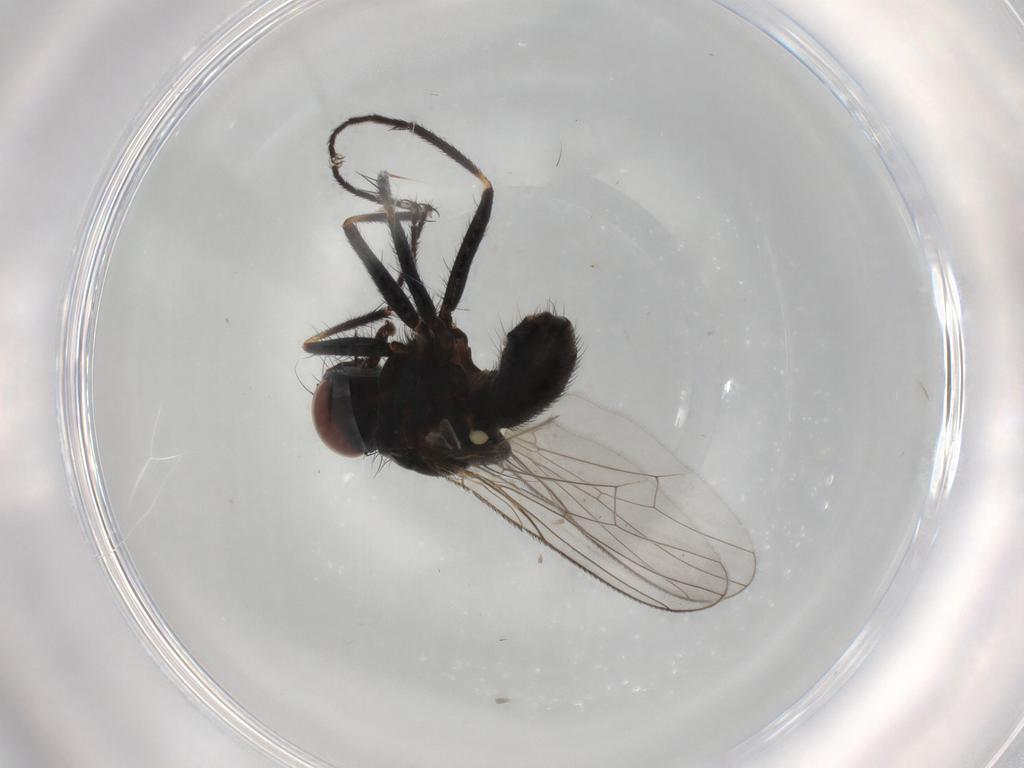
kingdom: Animalia
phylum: Arthropoda
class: Insecta
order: Diptera
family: Muscidae
